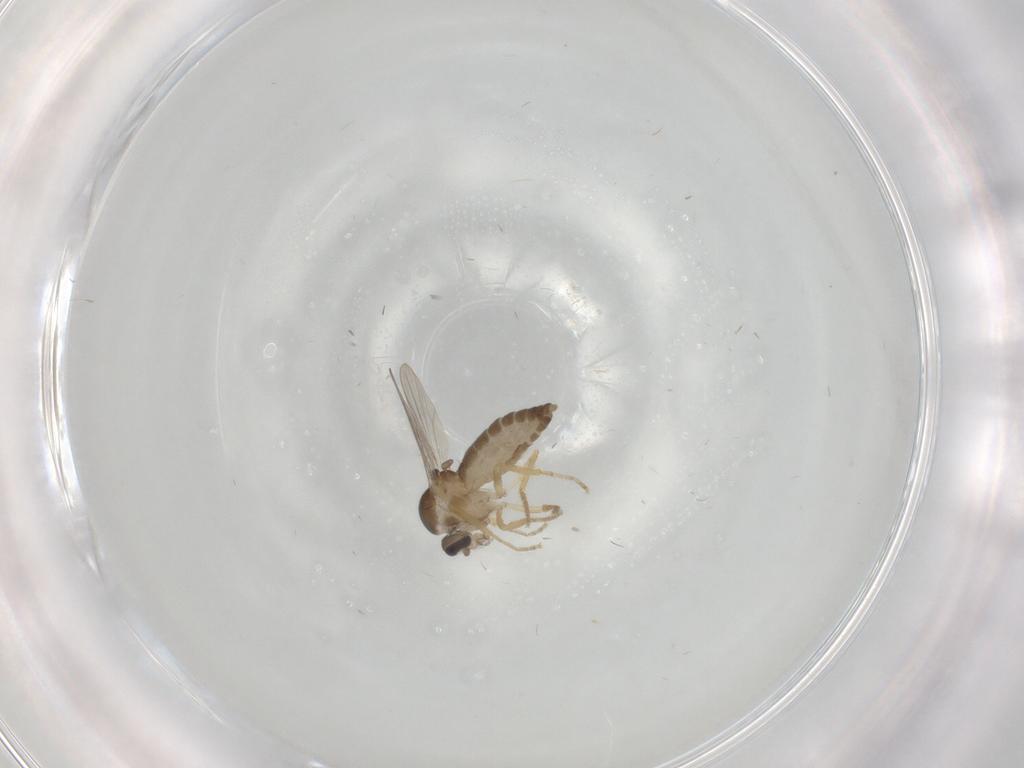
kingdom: Animalia
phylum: Arthropoda
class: Insecta
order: Diptera
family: Ceratopogonidae
